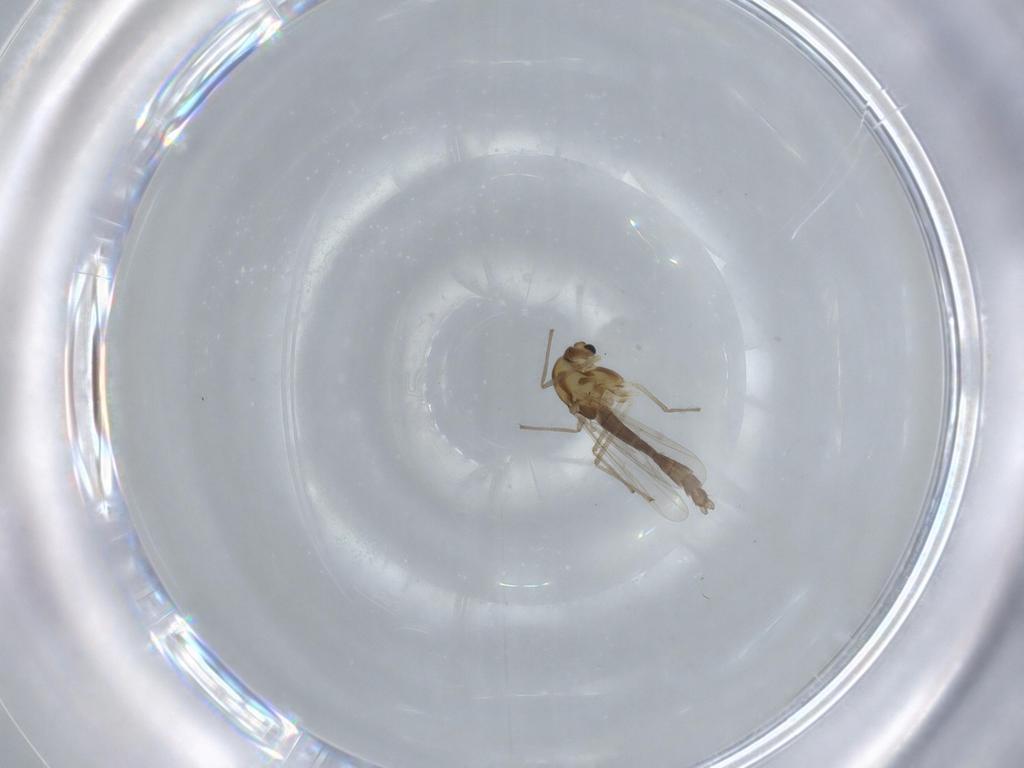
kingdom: Animalia
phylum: Arthropoda
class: Insecta
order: Diptera
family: Chironomidae
